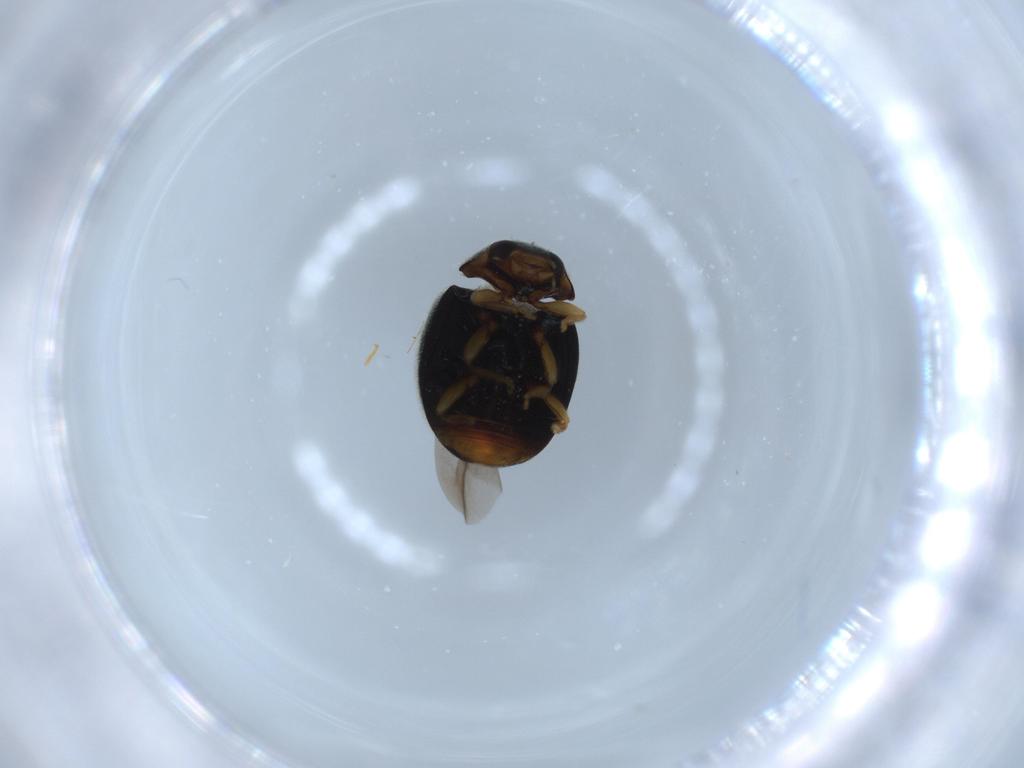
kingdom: Animalia
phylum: Arthropoda
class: Insecta
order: Coleoptera
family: Coccinellidae
